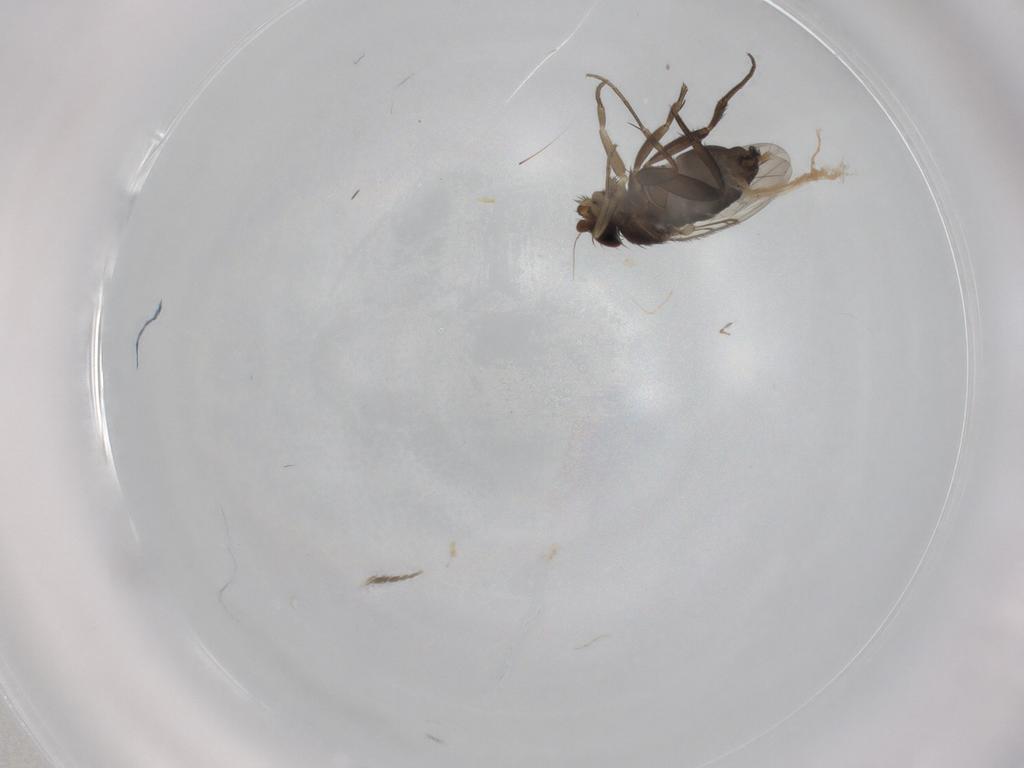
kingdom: Animalia
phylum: Arthropoda
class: Insecta
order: Diptera
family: Phoridae
